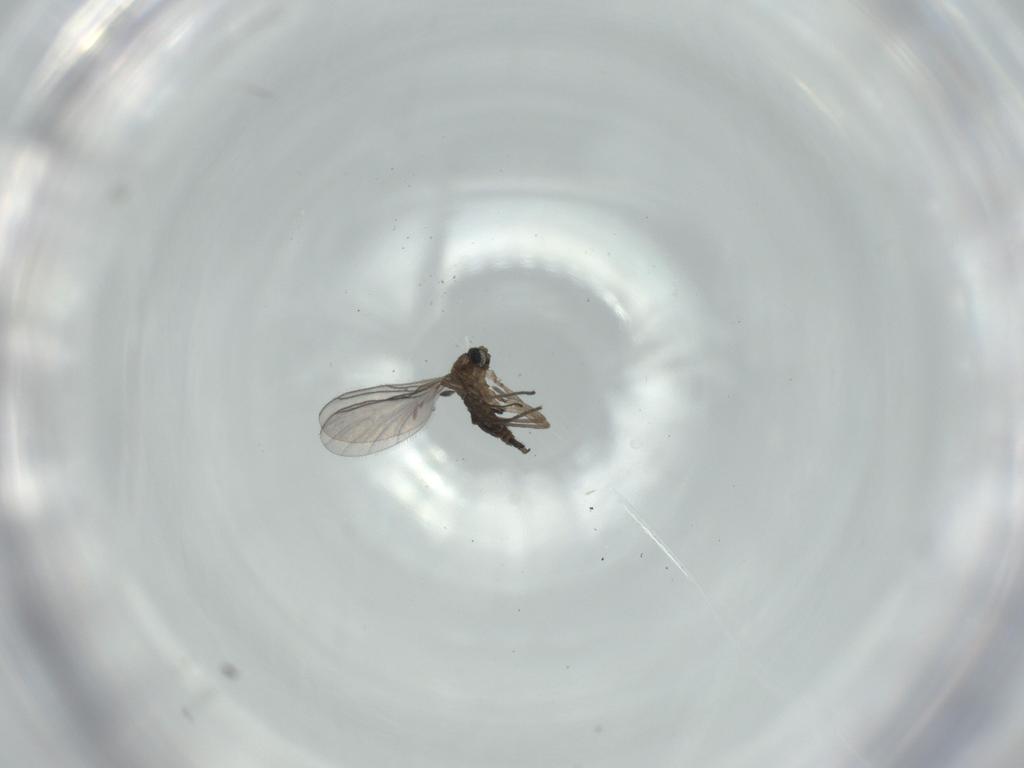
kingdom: Animalia
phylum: Arthropoda
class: Insecta
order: Diptera
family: Sciaridae
